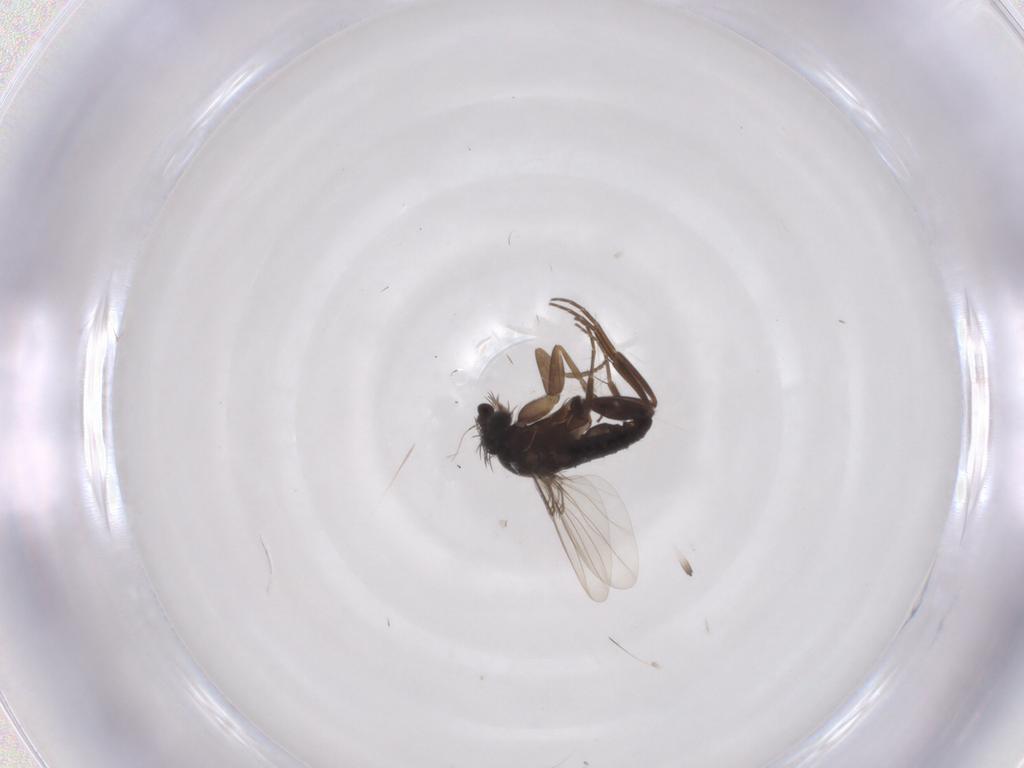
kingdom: Animalia
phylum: Arthropoda
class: Insecta
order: Diptera
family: Phoridae
